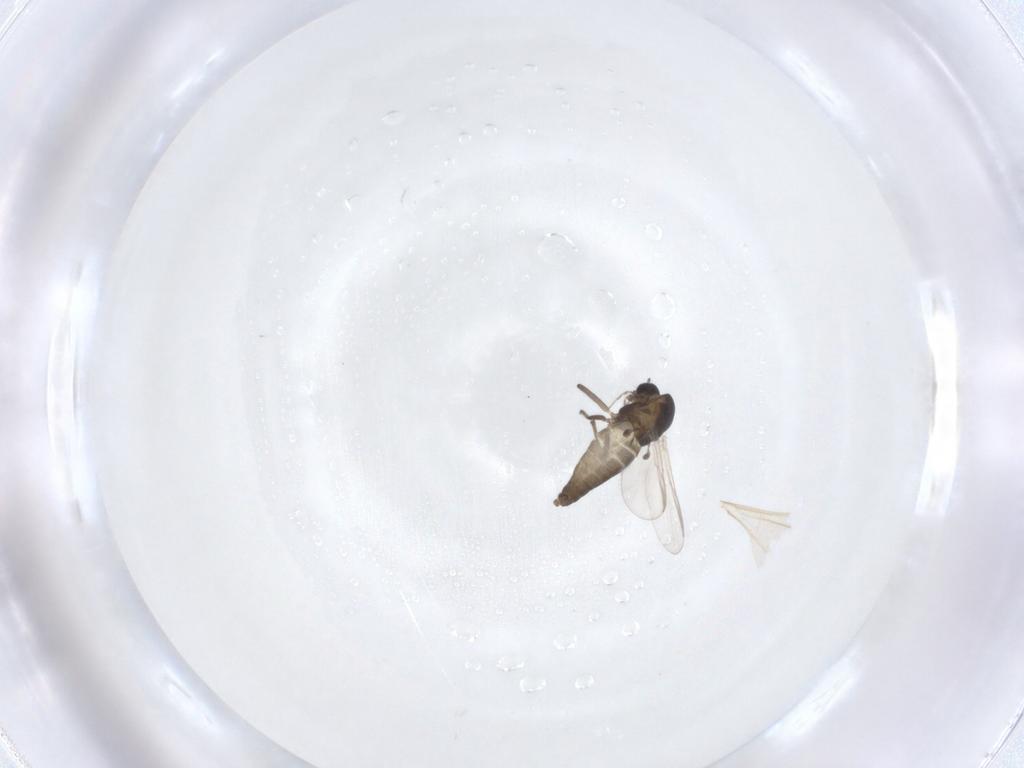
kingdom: Animalia
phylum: Arthropoda
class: Insecta
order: Diptera
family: Chironomidae
